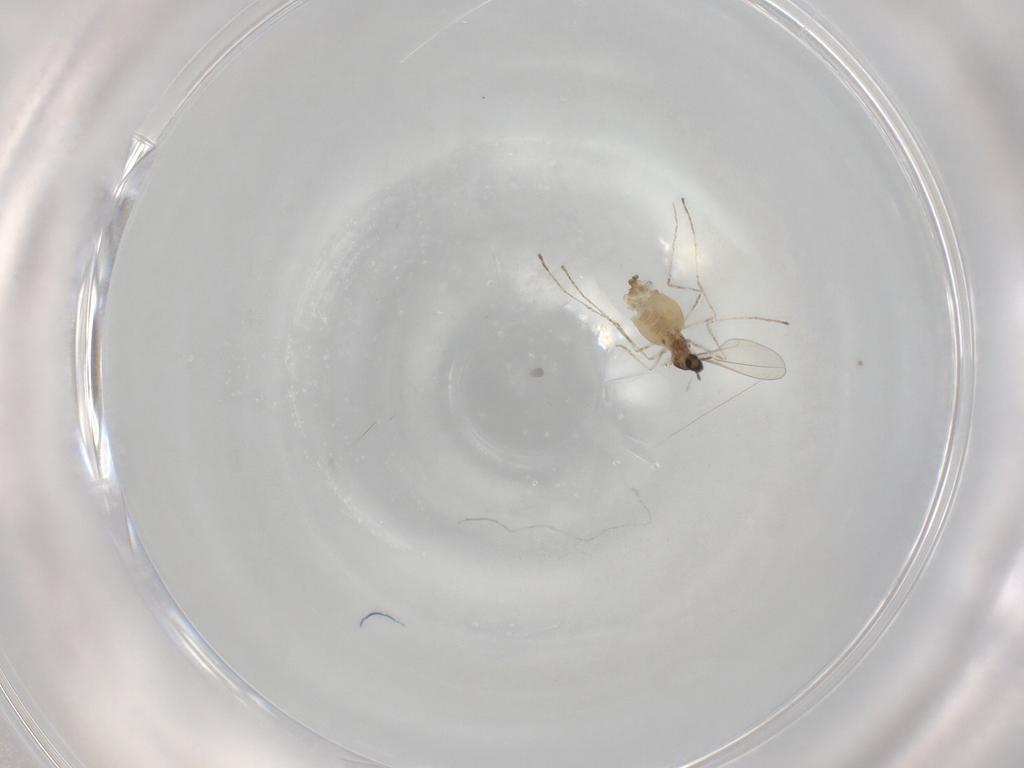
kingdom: Animalia
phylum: Arthropoda
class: Insecta
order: Diptera
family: Cecidomyiidae
